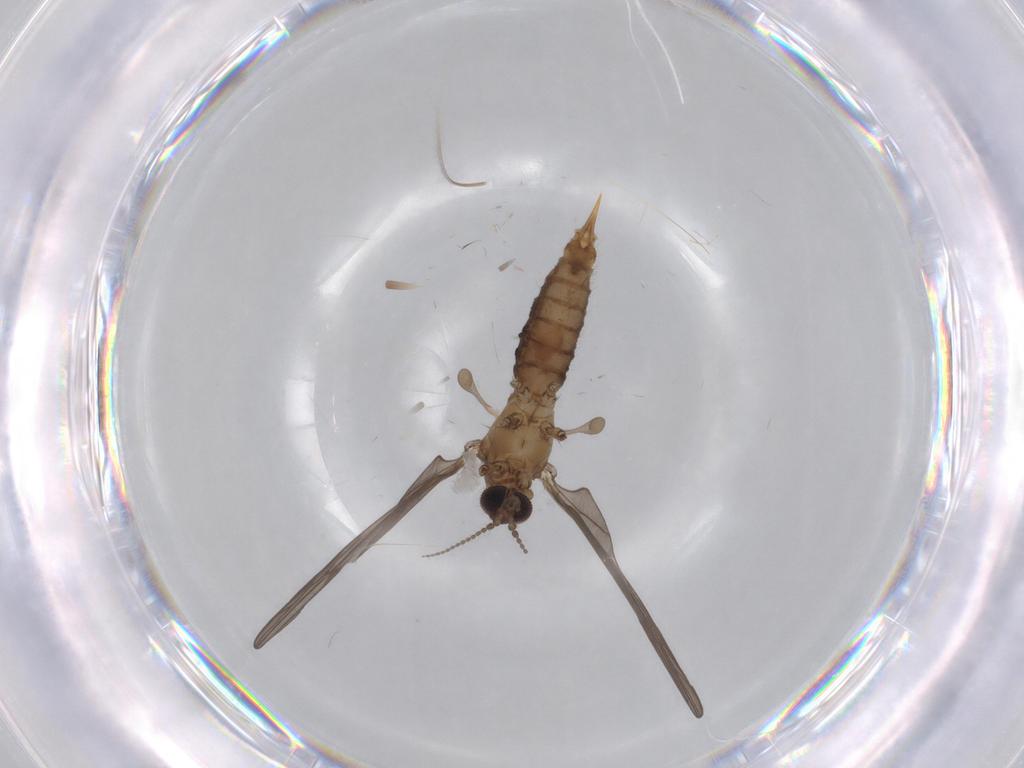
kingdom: Animalia
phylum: Arthropoda
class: Insecta
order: Diptera
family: Limoniidae
